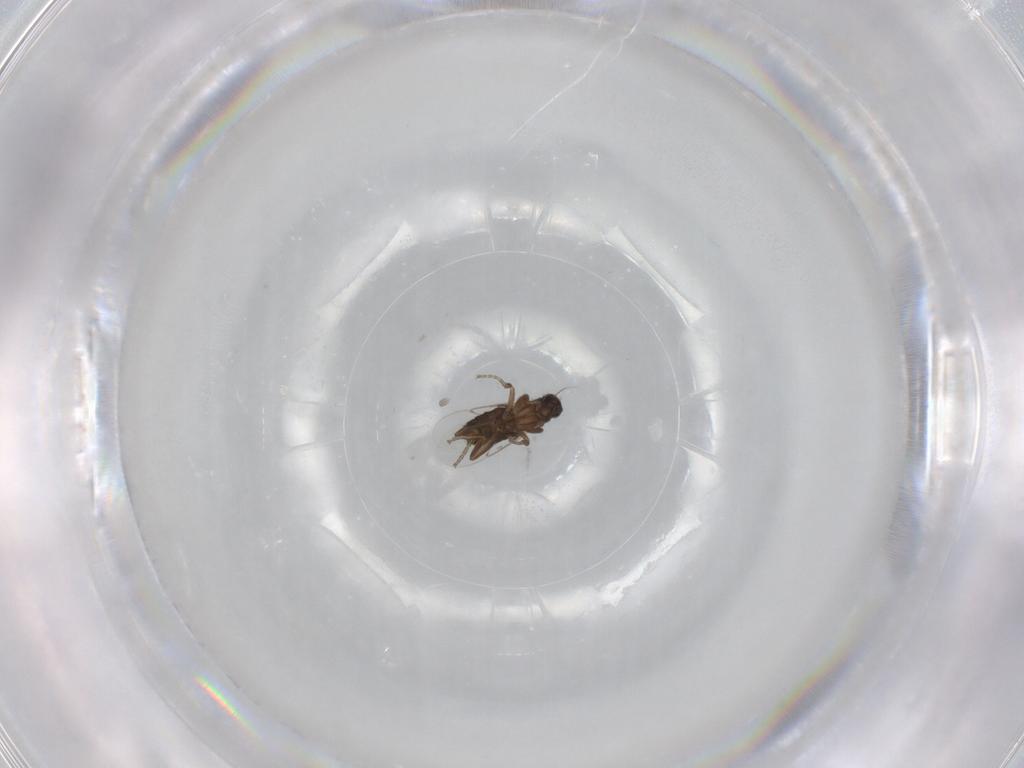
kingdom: Animalia
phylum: Arthropoda
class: Insecta
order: Diptera
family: Phoridae
